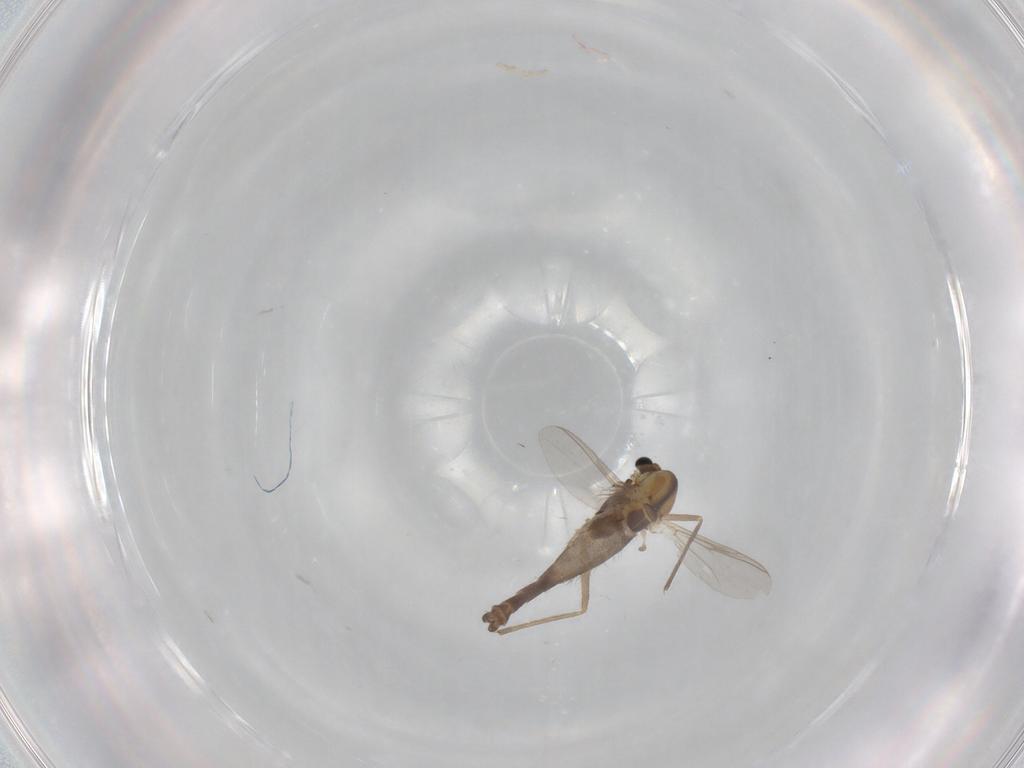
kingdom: Animalia
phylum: Arthropoda
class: Insecta
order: Diptera
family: Chironomidae
